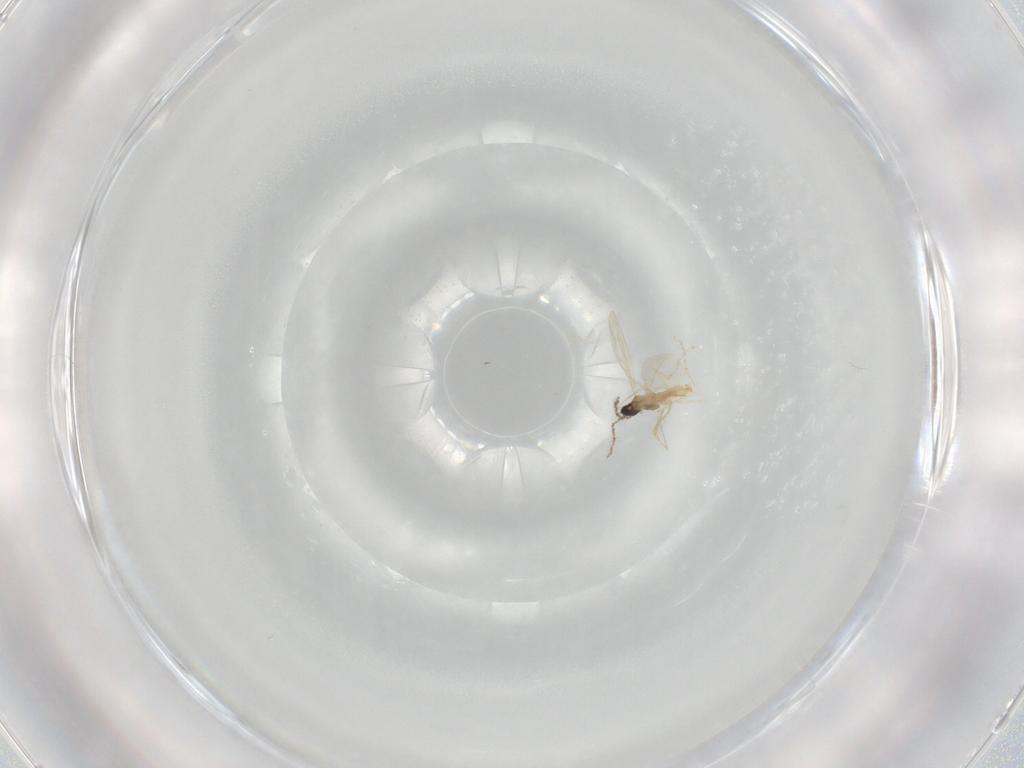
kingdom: Animalia
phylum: Arthropoda
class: Insecta
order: Diptera
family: Cecidomyiidae
